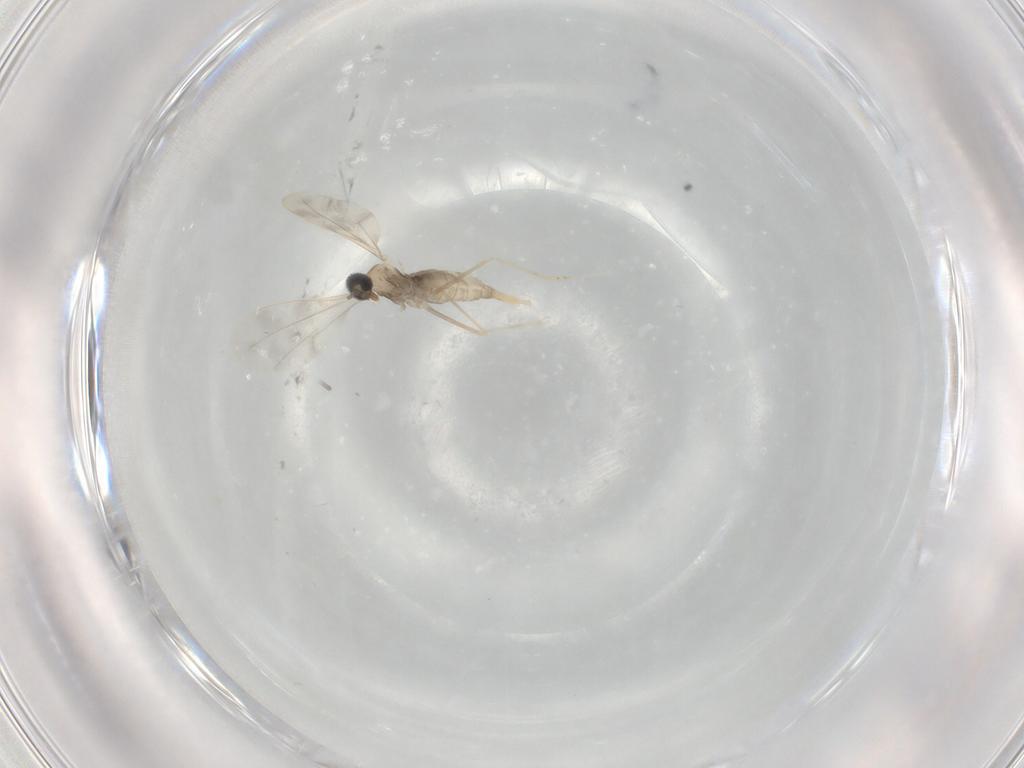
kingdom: Animalia
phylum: Arthropoda
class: Insecta
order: Diptera
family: Cecidomyiidae
